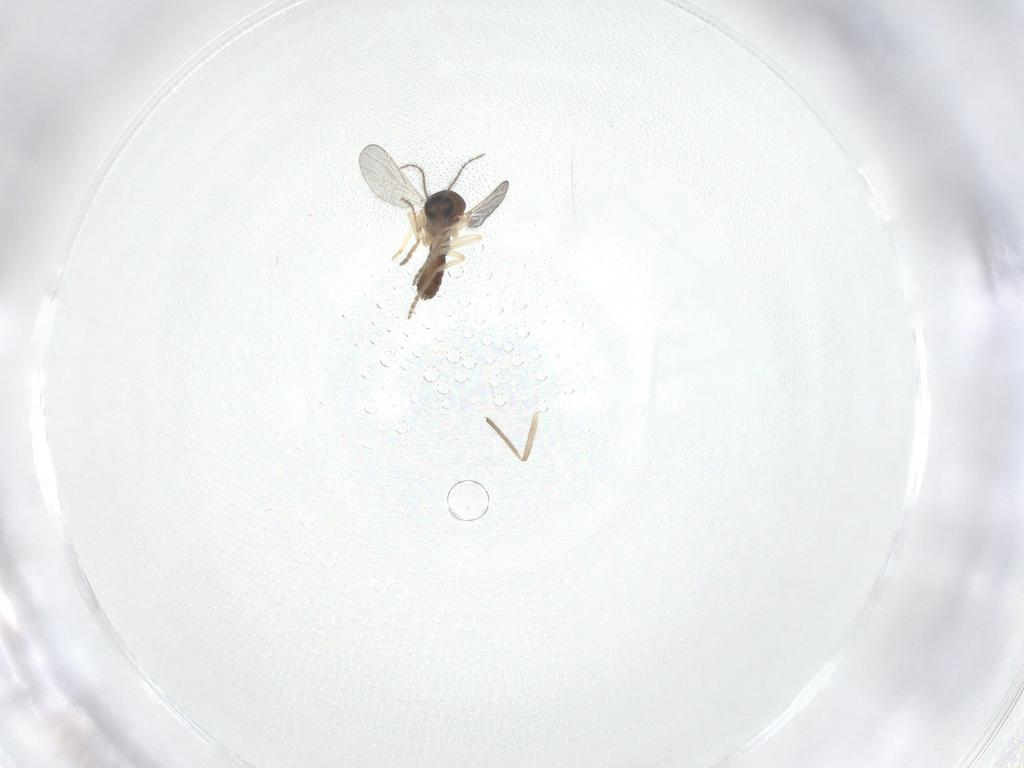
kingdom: Animalia
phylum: Arthropoda
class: Insecta
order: Diptera
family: Ceratopogonidae
